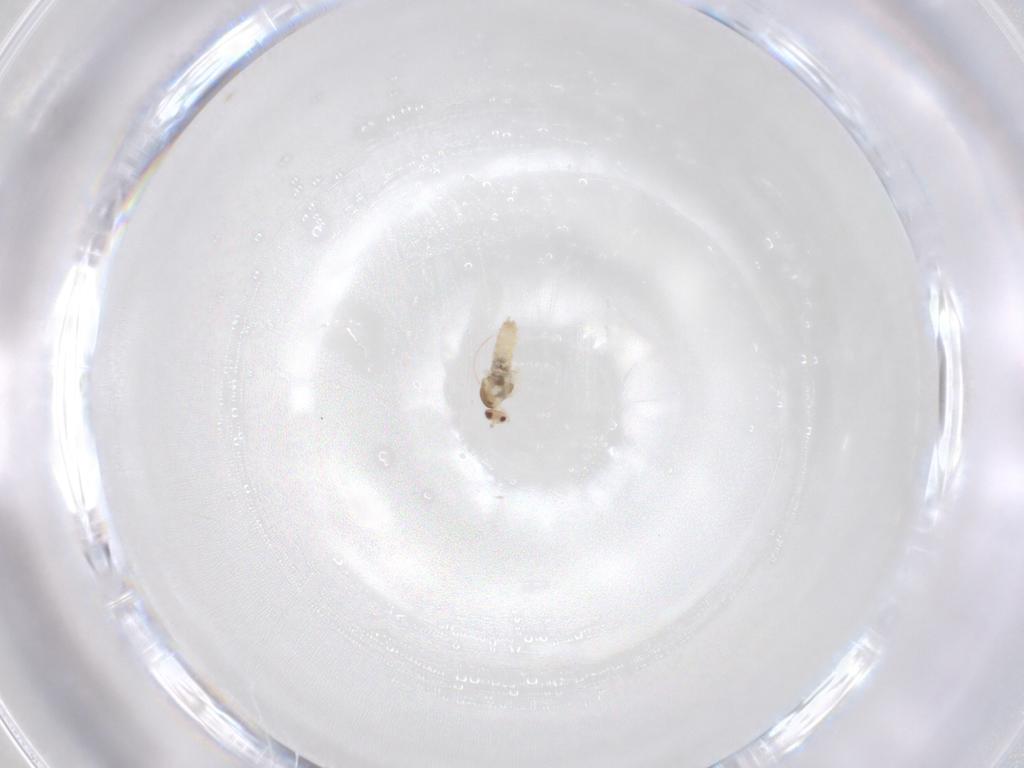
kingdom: Animalia
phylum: Arthropoda
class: Insecta
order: Diptera
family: Cecidomyiidae
